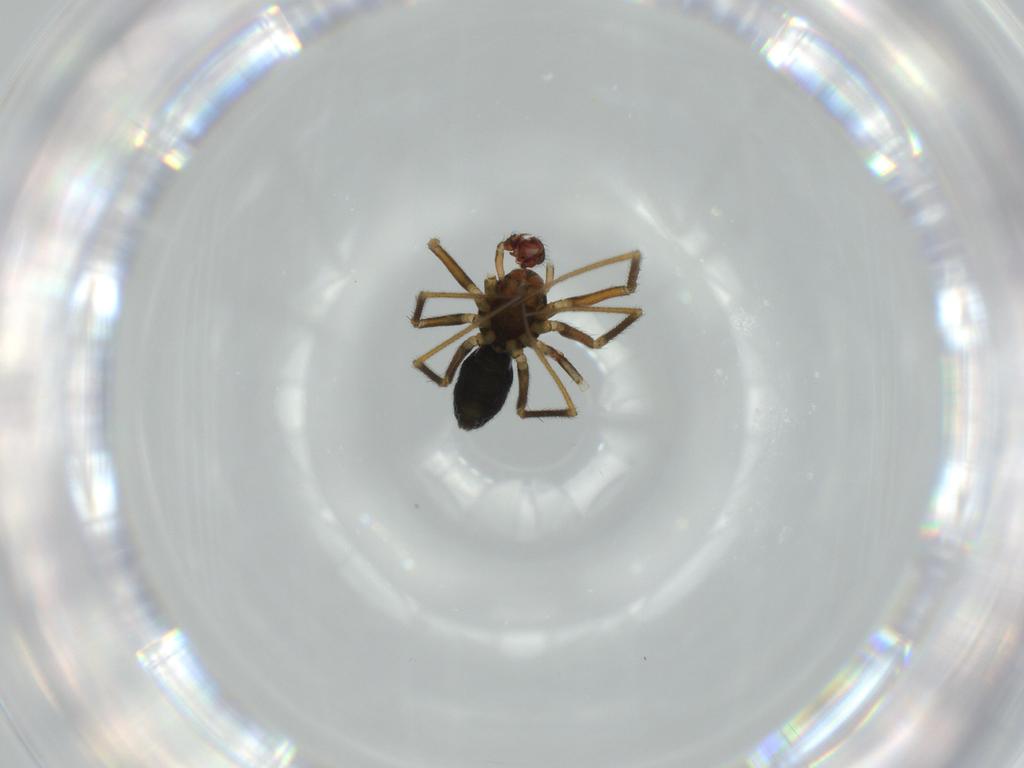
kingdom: Animalia
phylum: Arthropoda
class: Arachnida
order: Araneae
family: Linyphiidae
